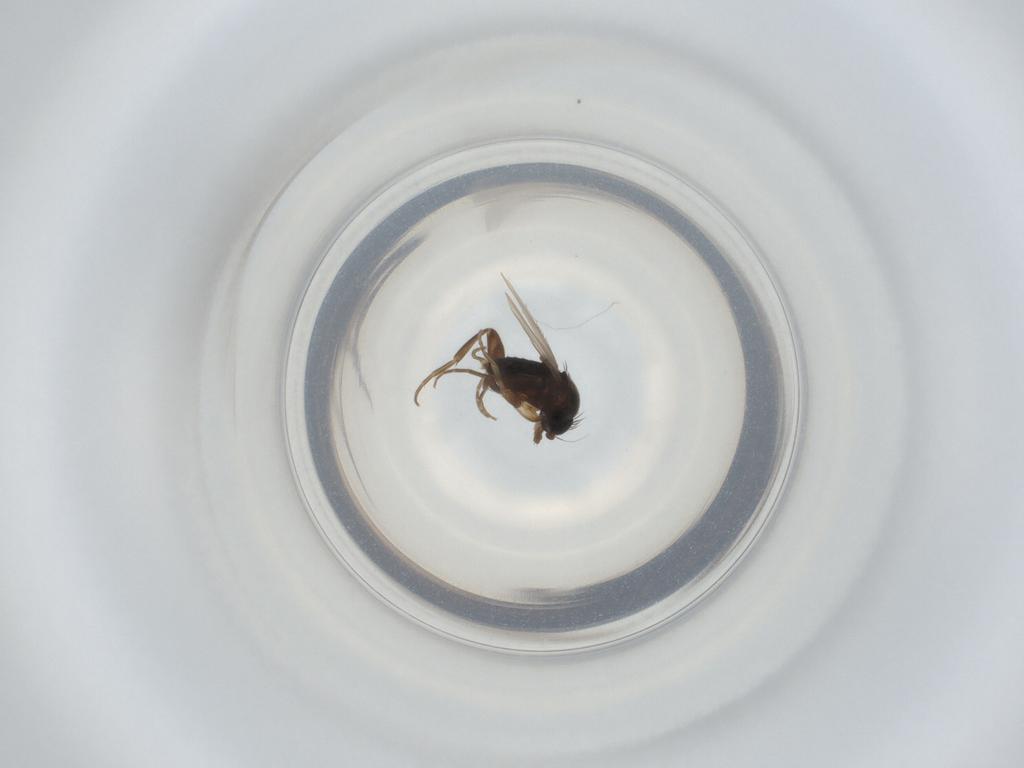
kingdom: Animalia
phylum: Arthropoda
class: Insecta
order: Diptera
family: Phoridae
